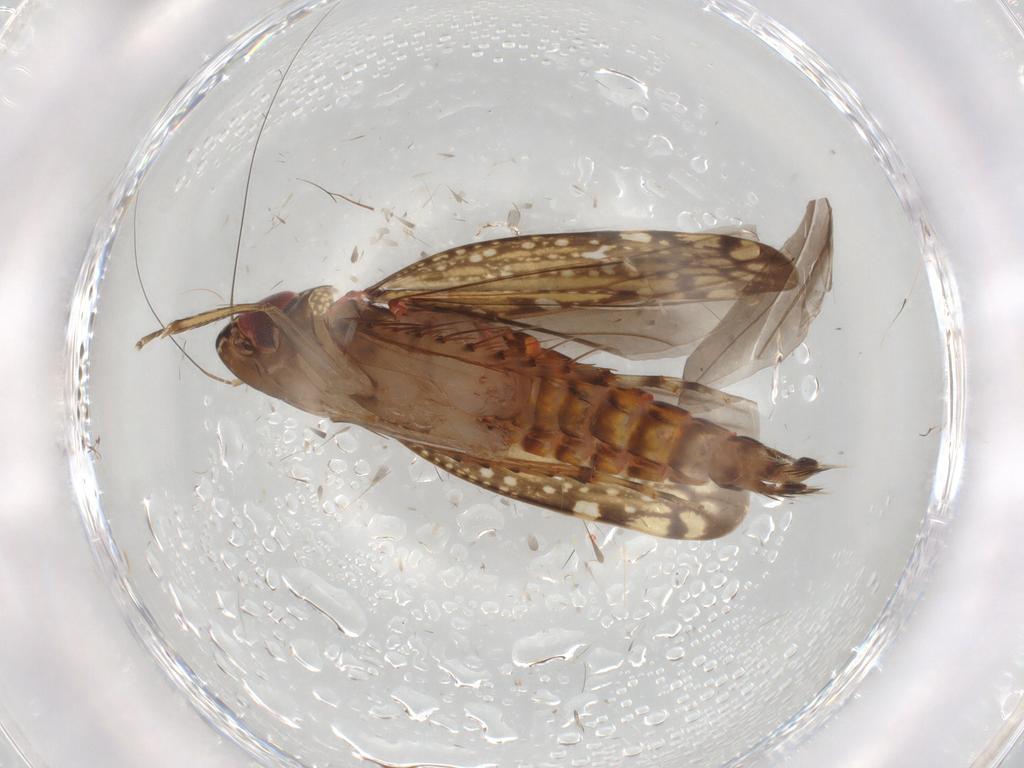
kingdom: Animalia
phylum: Arthropoda
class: Insecta
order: Hemiptera
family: Cicadellidae
